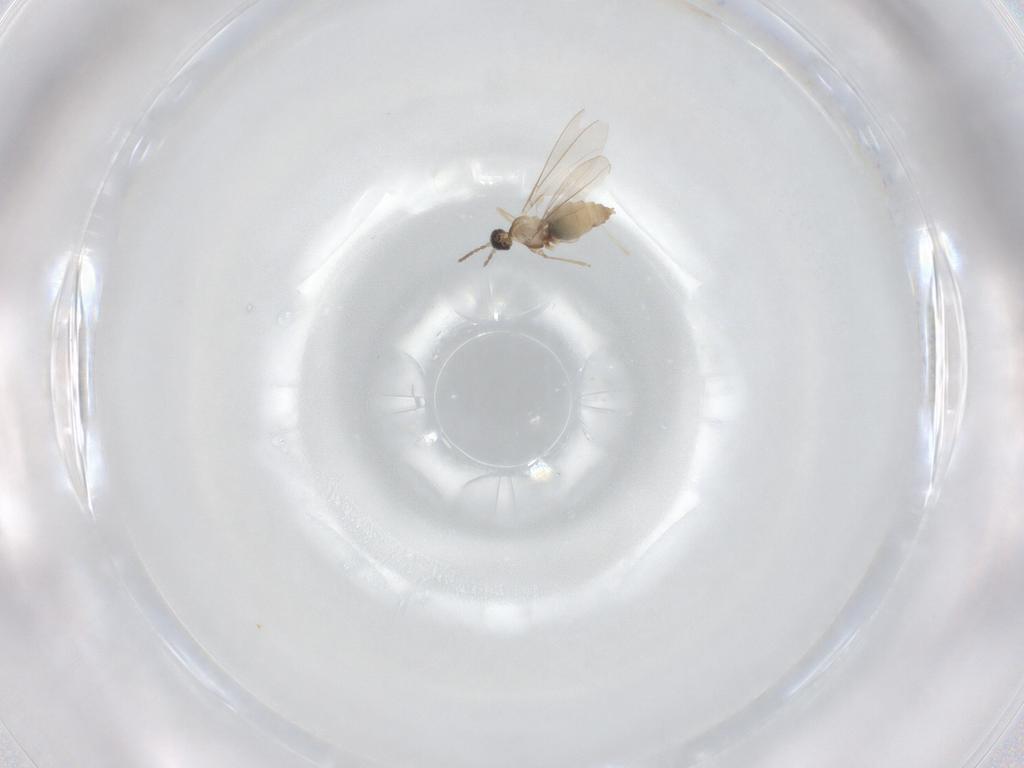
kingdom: Animalia
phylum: Arthropoda
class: Insecta
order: Diptera
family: Cecidomyiidae
